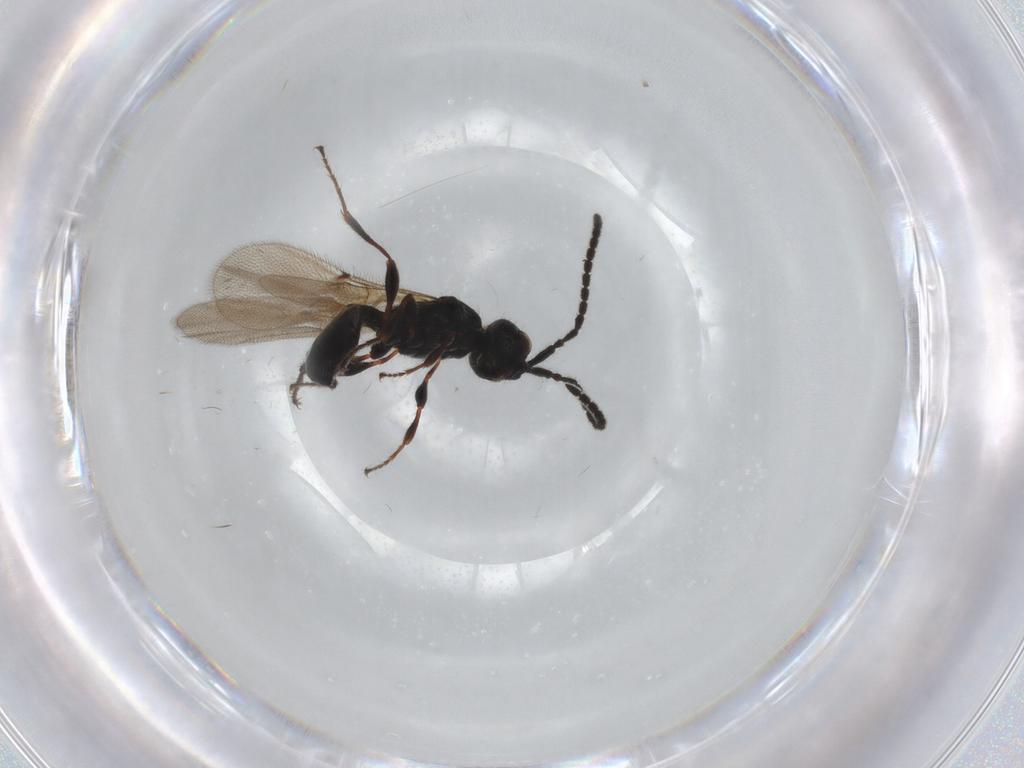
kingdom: Animalia
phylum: Arthropoda
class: Insecta
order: Hymenoptera
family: Diapriidae
